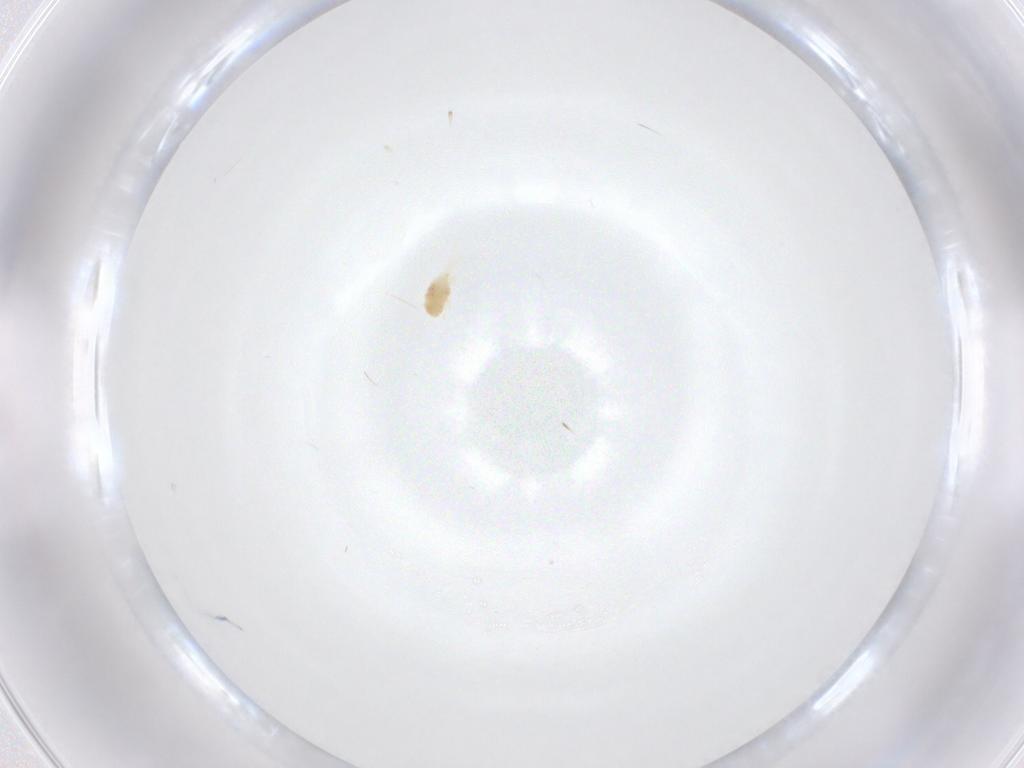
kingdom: Animalia
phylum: Arthropoda
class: Arachnida
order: Trombidiformes
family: Tetranychidae
